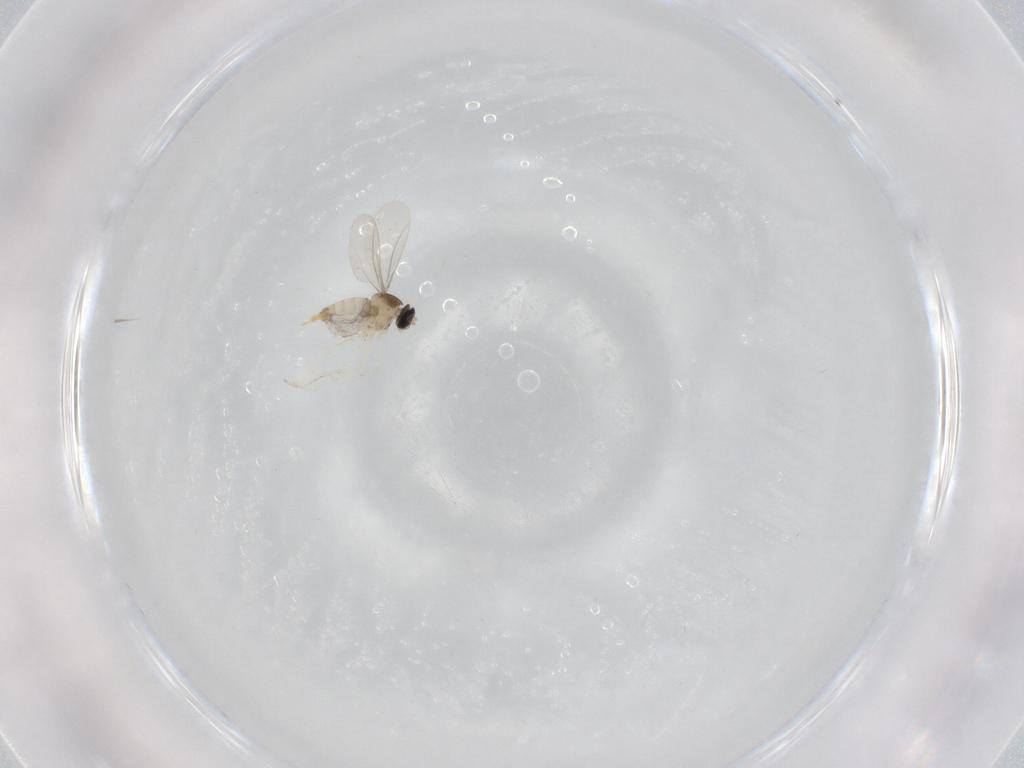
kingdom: Animalia
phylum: Arthropoda
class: Insecta
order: Diptera
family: Cecidomyiidae
